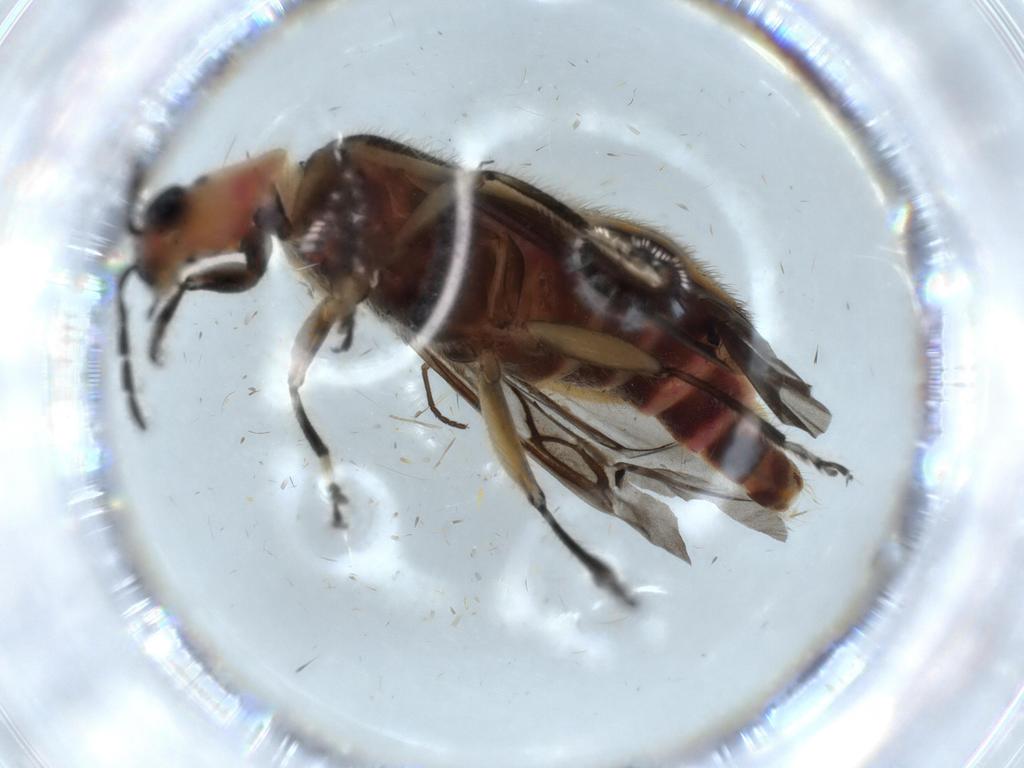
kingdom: Animalia
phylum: Arthropoda
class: Insecta
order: Coleoptera
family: Cleridae
